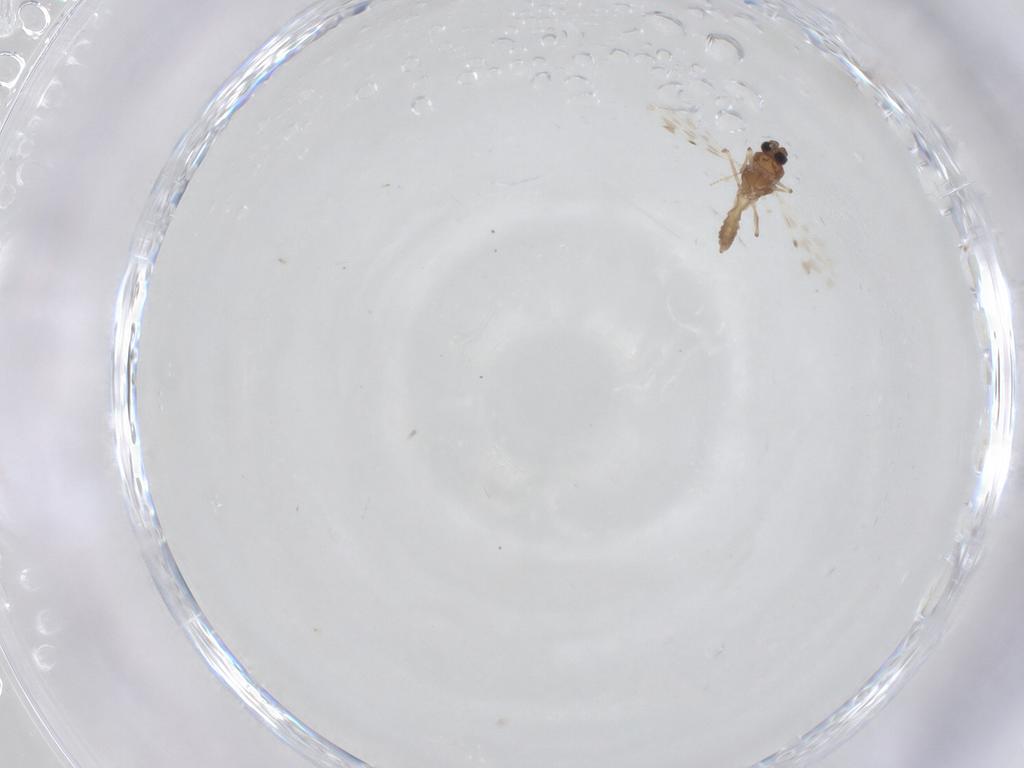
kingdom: Animalia
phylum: Arthropoda
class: Insecta
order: Diptera
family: Cecidomyiidae
